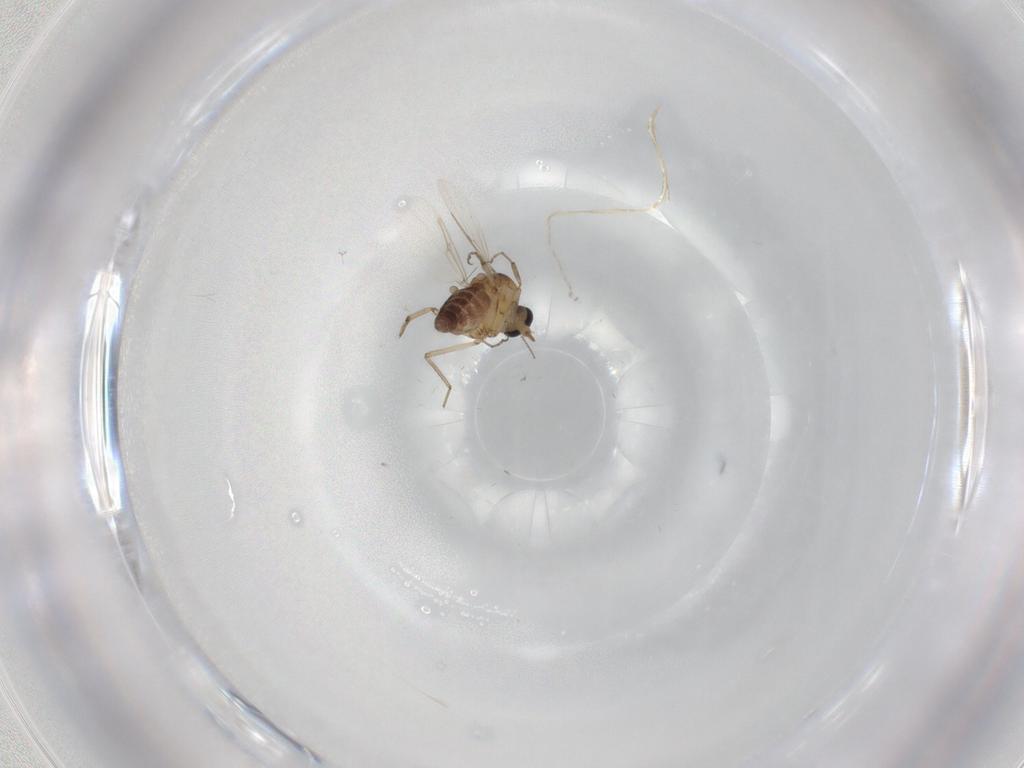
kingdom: Animalia
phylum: Arthropoda
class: Insecta
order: Diptera
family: Ceratopogonidae
